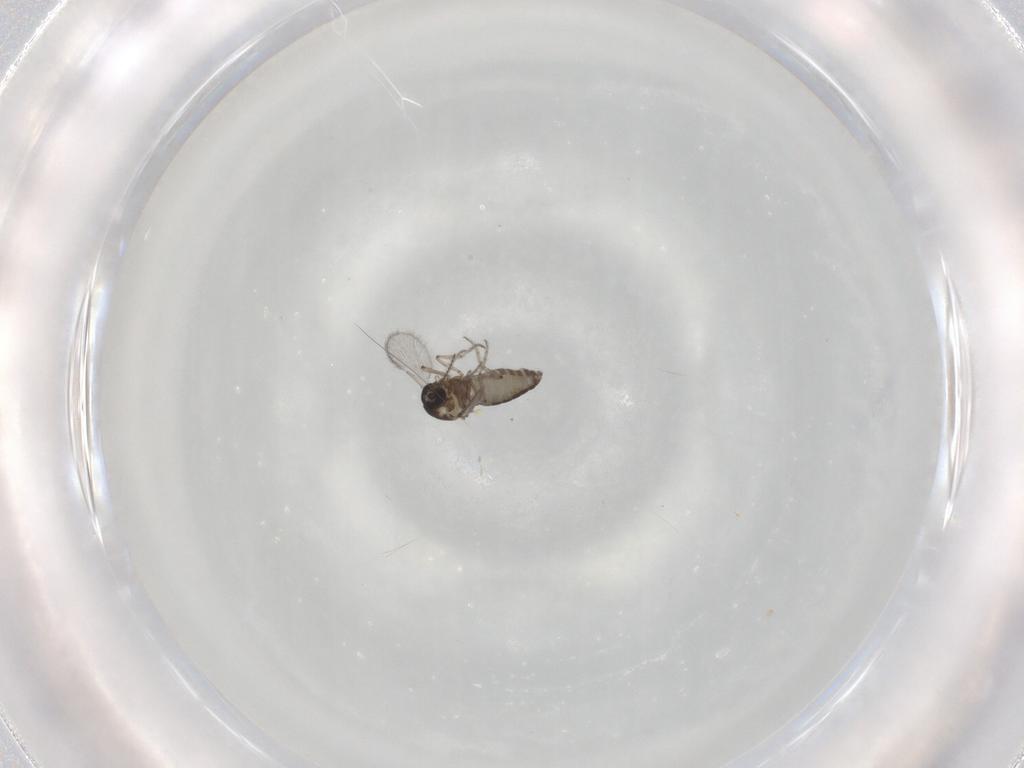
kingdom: Animalia
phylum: Arthropoda
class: Insecta
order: Diptera
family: Ceratopogonidae
